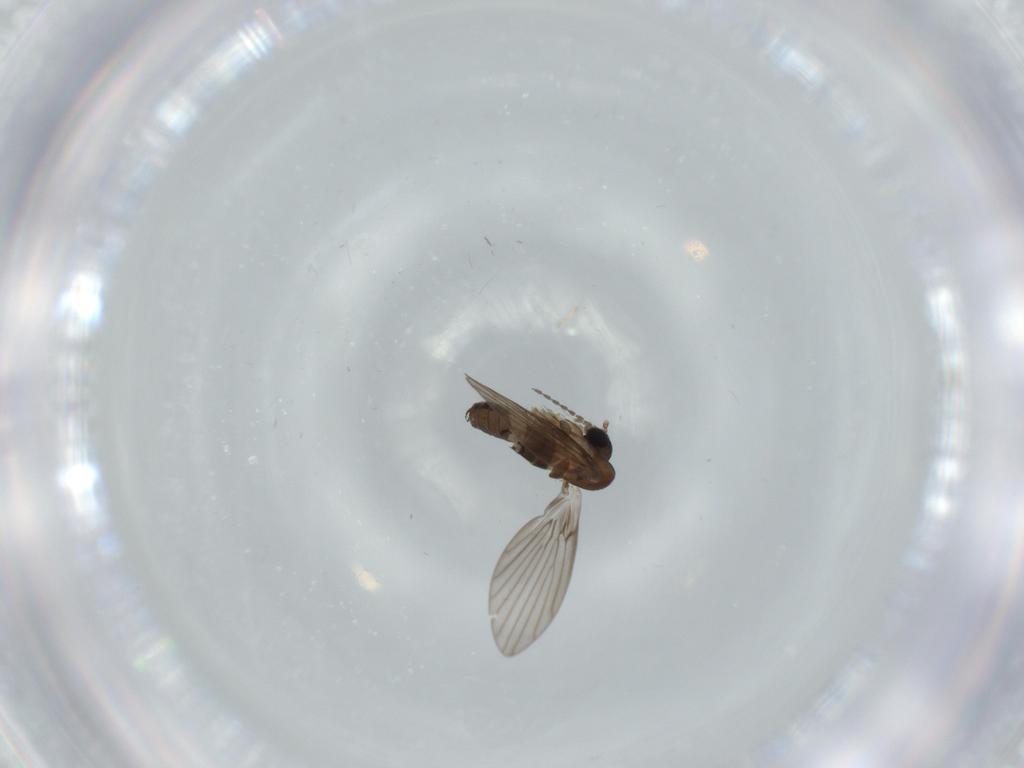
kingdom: Animalia
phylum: Arthropoda
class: Insecta
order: Diptera
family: Psychodidae
